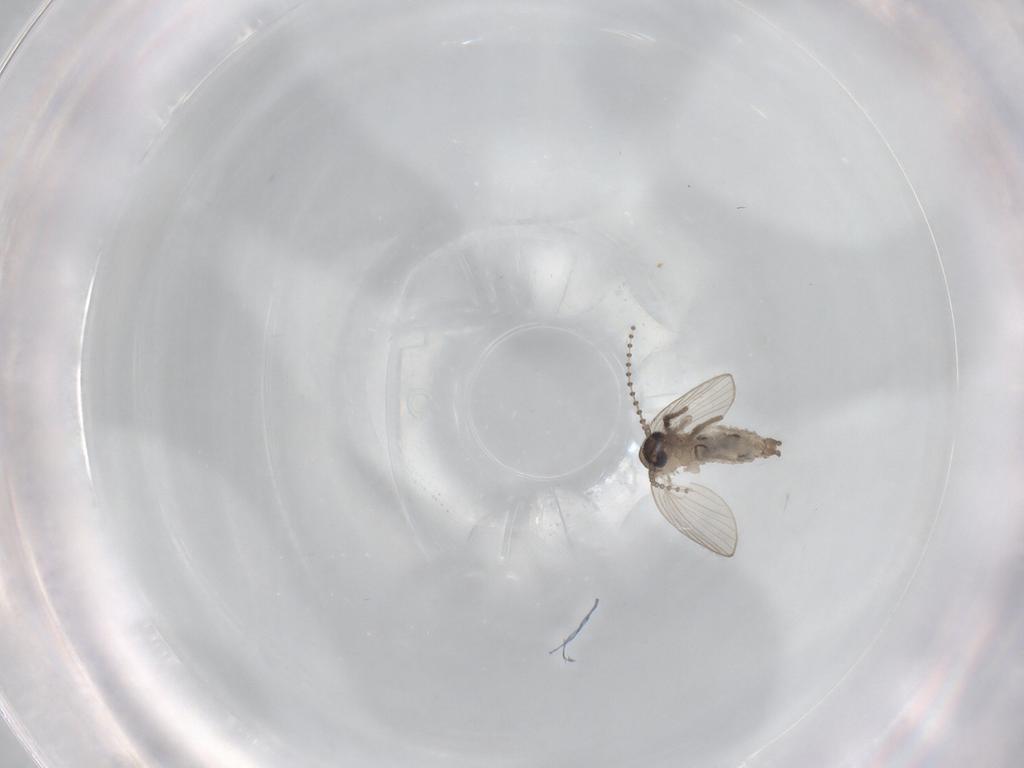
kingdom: Animalia
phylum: Arthropoda
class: Insecta
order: Diptera
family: Psychodidae
